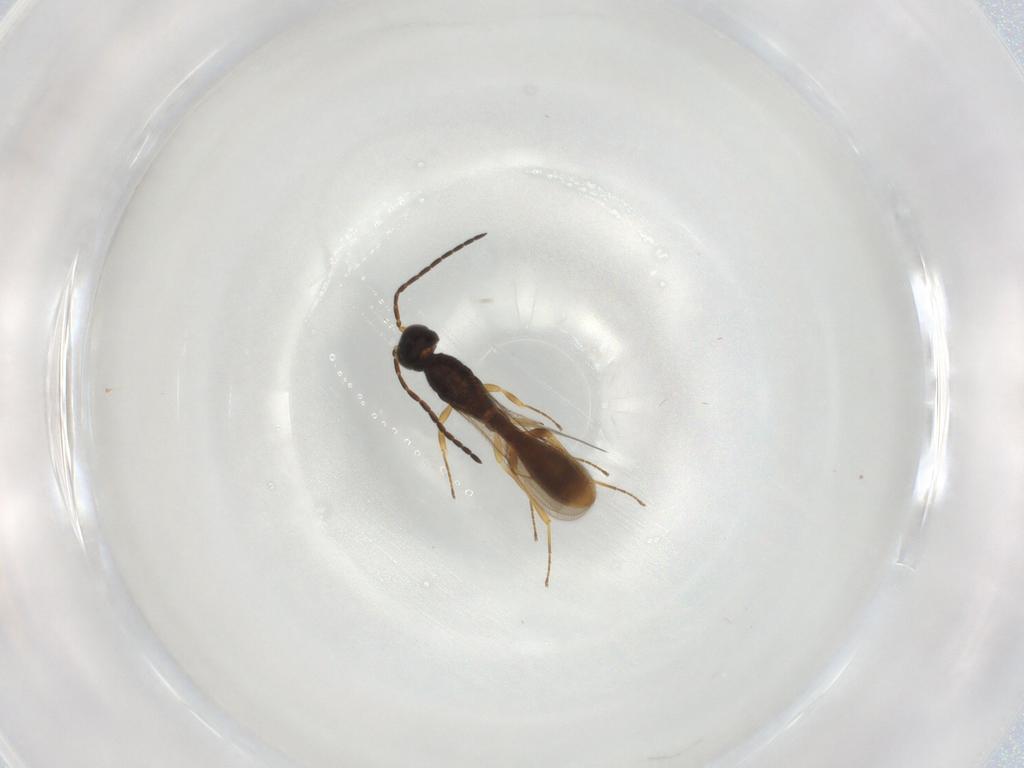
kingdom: Animalia
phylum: Arthropoda
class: Insecta
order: Hymenoptera
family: Scelionidae
